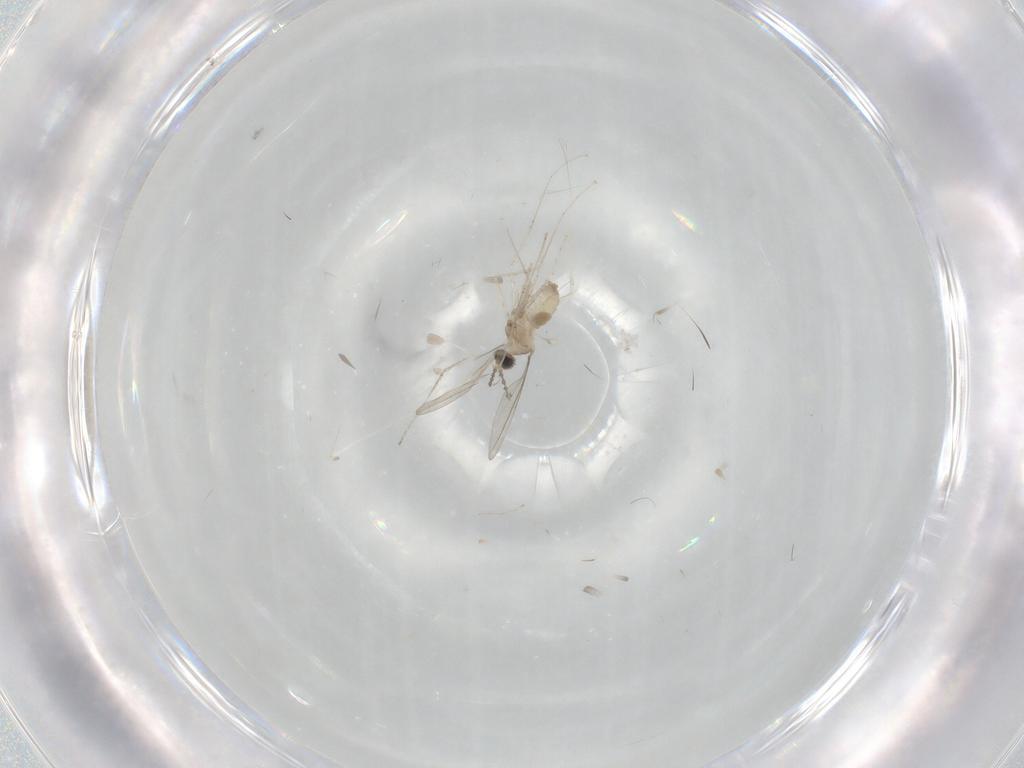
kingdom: Animalia
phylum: Arthropoda
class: Insecta
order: Diptera
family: Cecidomyiidae
